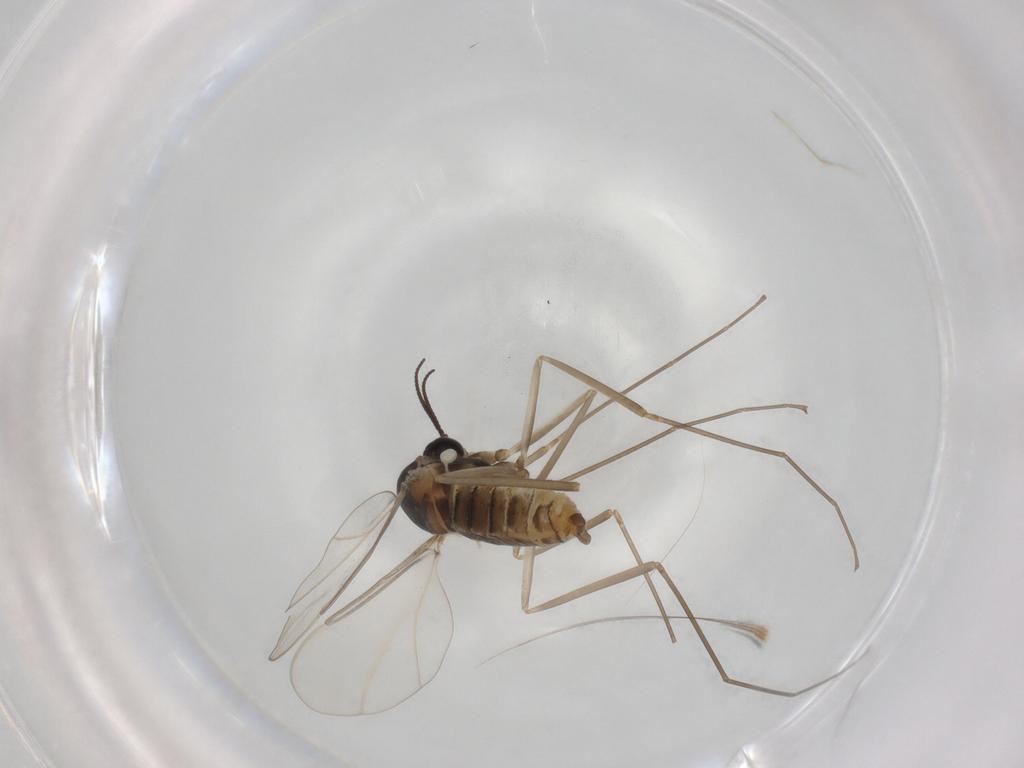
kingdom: Animalia
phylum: Arthropoda
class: Insecta
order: Diptera
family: Cecidomyiidae
